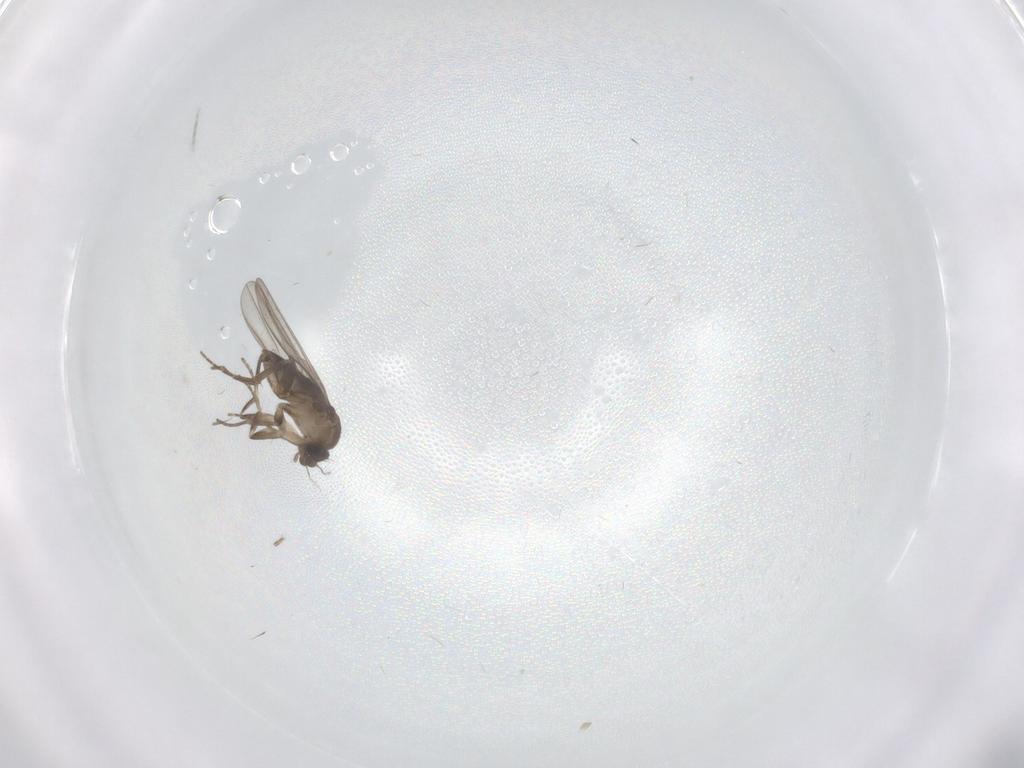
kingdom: Animalia
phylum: Arthropoda
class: Insecta
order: Diptera
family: Phoridae
